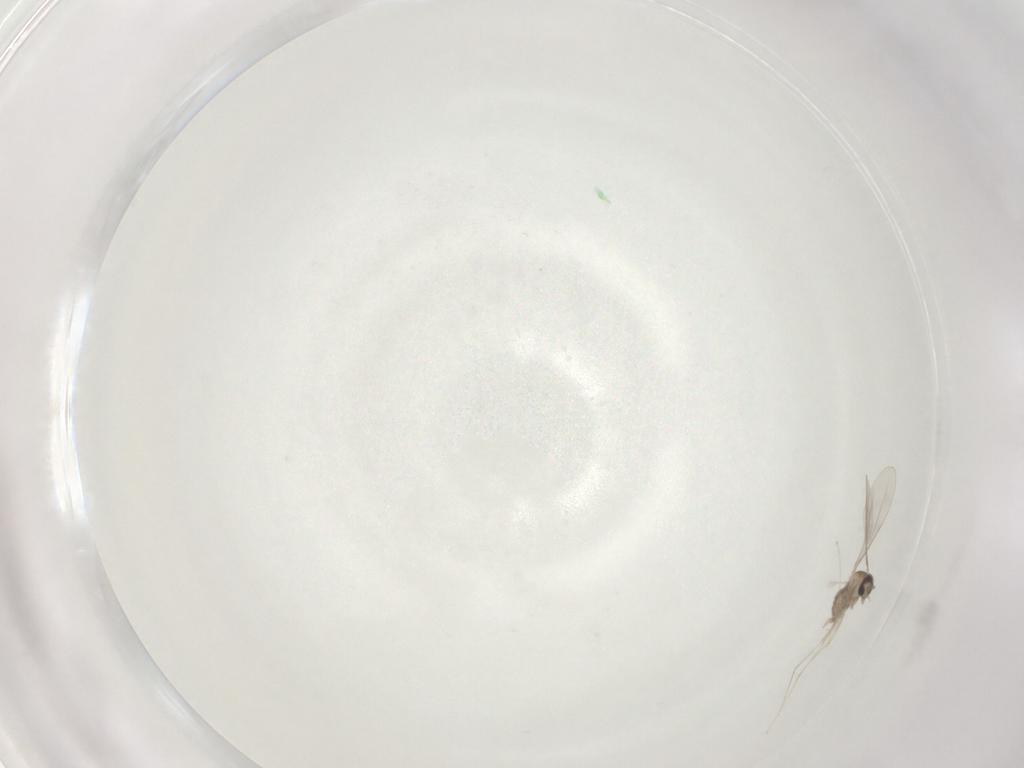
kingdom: Animalia
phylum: Arthropoda
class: Insecta
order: Diptera
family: Cecidomyiidae
